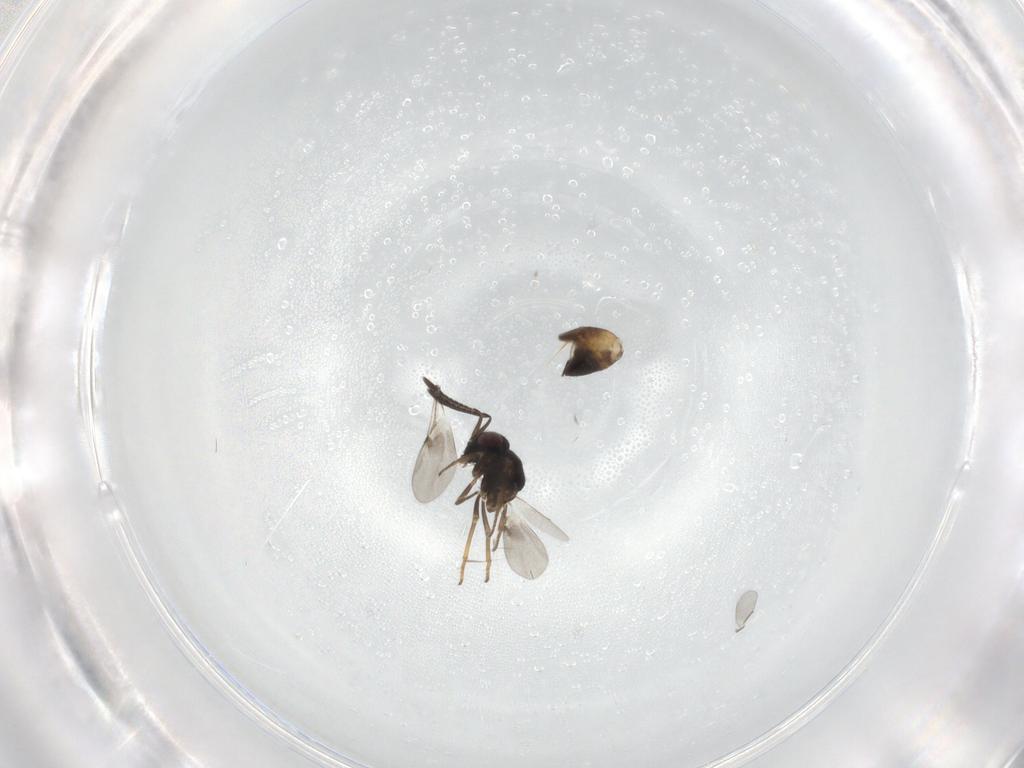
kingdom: Animalia
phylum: Arthropoda
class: Insecta
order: Hymenoptera
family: Encyrtidae
